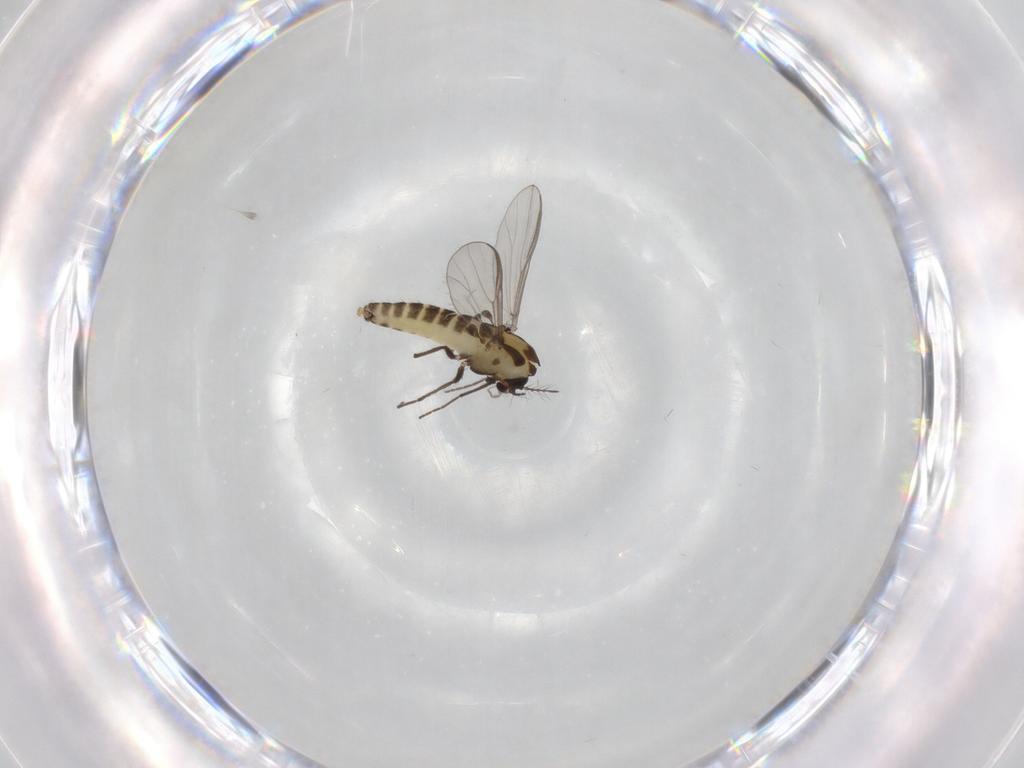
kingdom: Animalia
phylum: Arthropoda
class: Insecta
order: Diptera
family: Chironomidae
